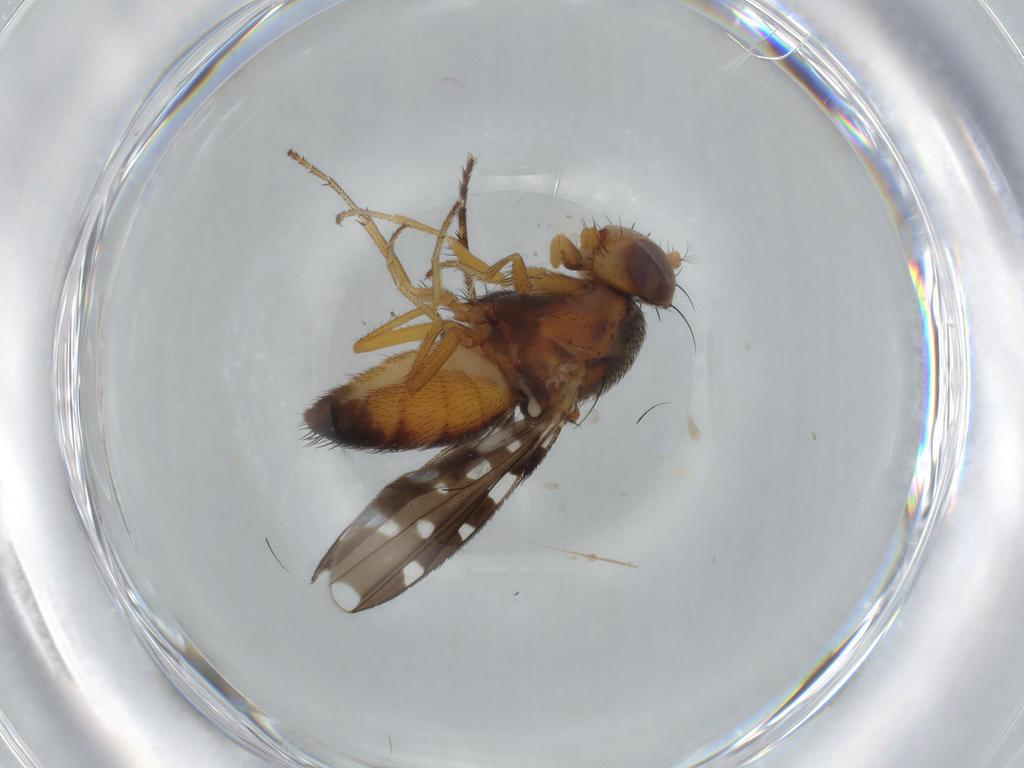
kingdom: Animalia
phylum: Arthropoda
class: Insecta
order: Diptera
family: Muscidae
